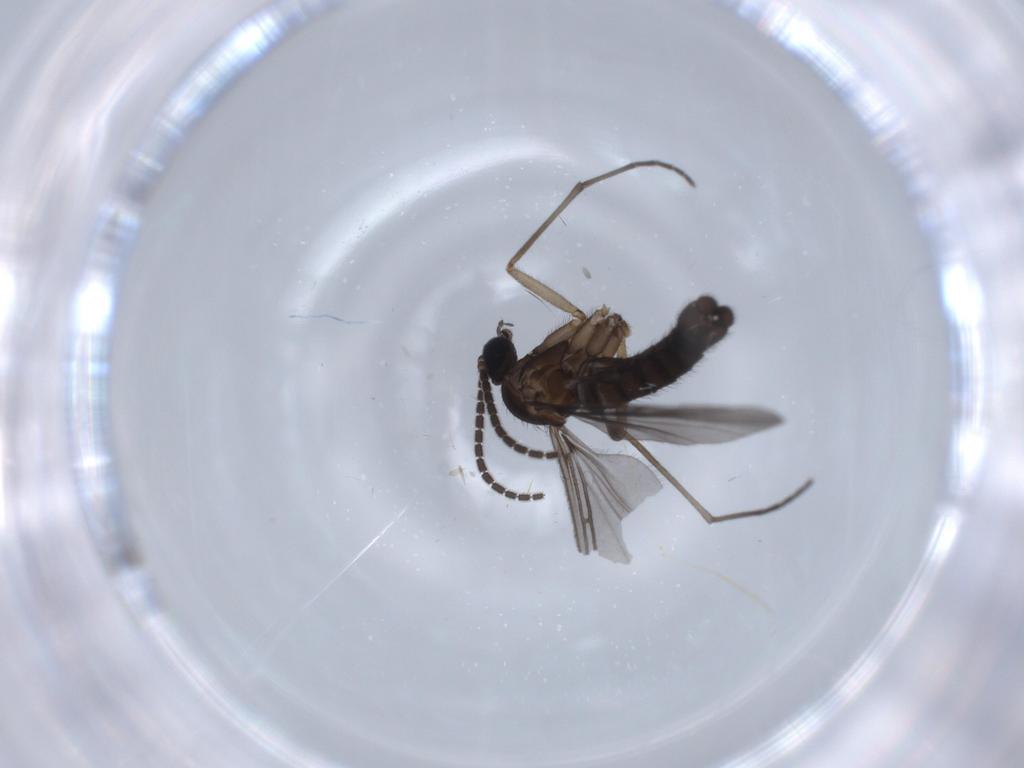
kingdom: Animalia
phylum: Arthropoda
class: Insecta
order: Diptera
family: Sciaridae
